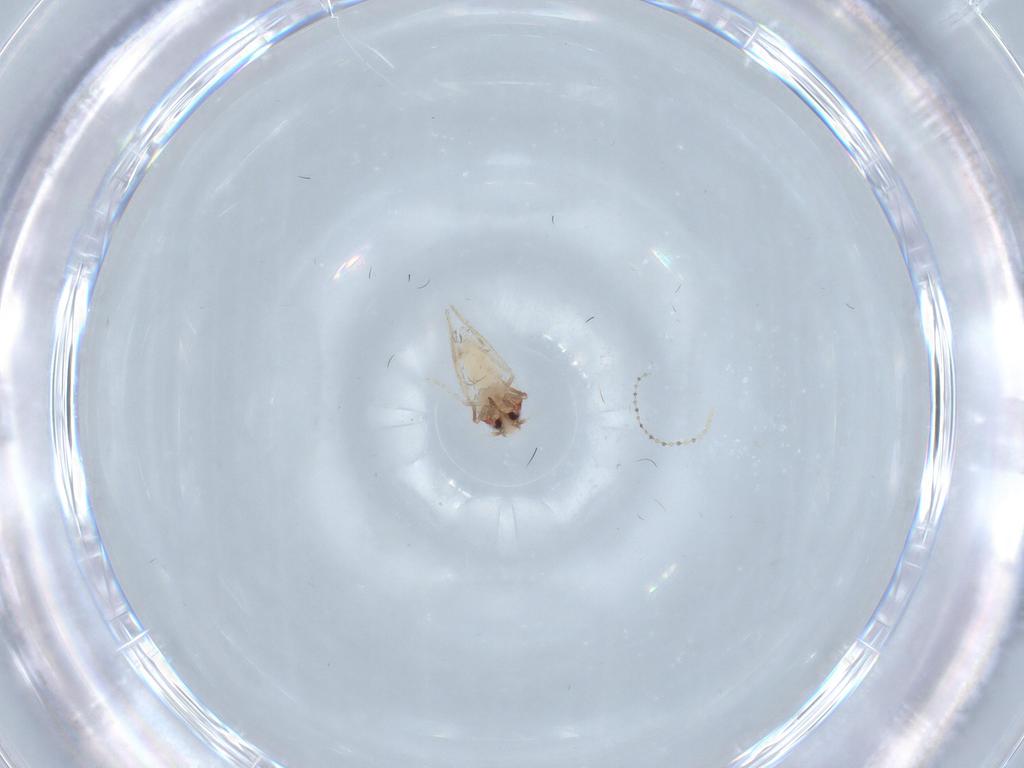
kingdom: Animalia
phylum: Arthropoda
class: Insecta
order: Hemiptera
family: Aleyrodidae
